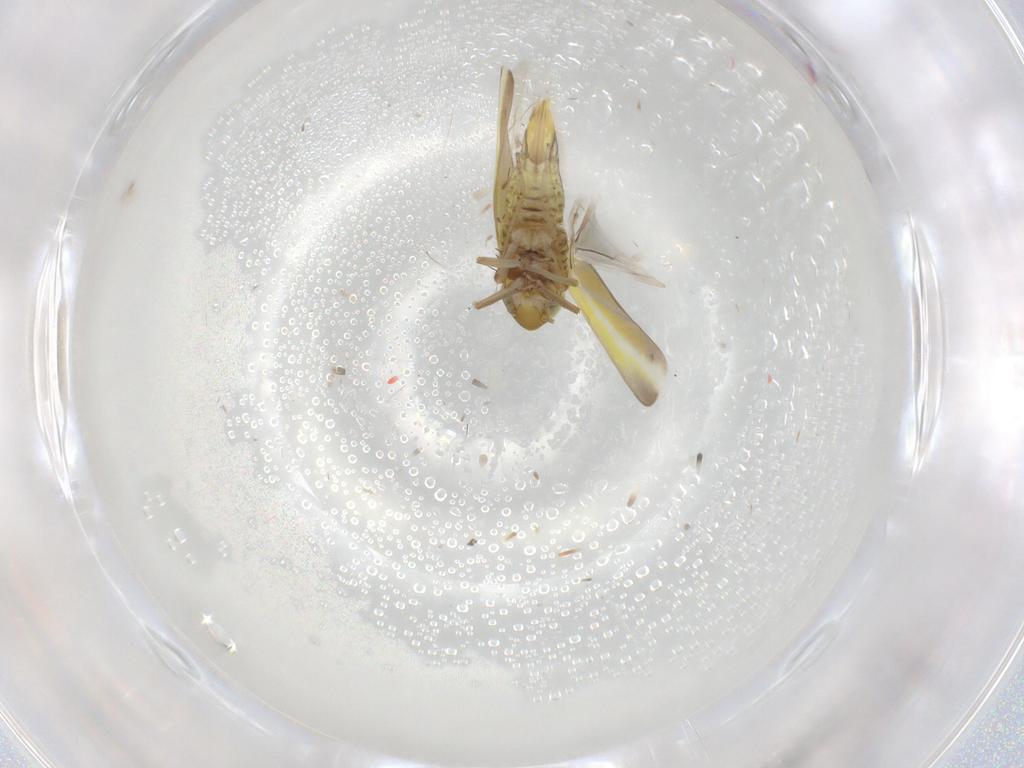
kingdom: Animalia
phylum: Arthropoda
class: Insecta
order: Hemiptera
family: Cicadellidae
